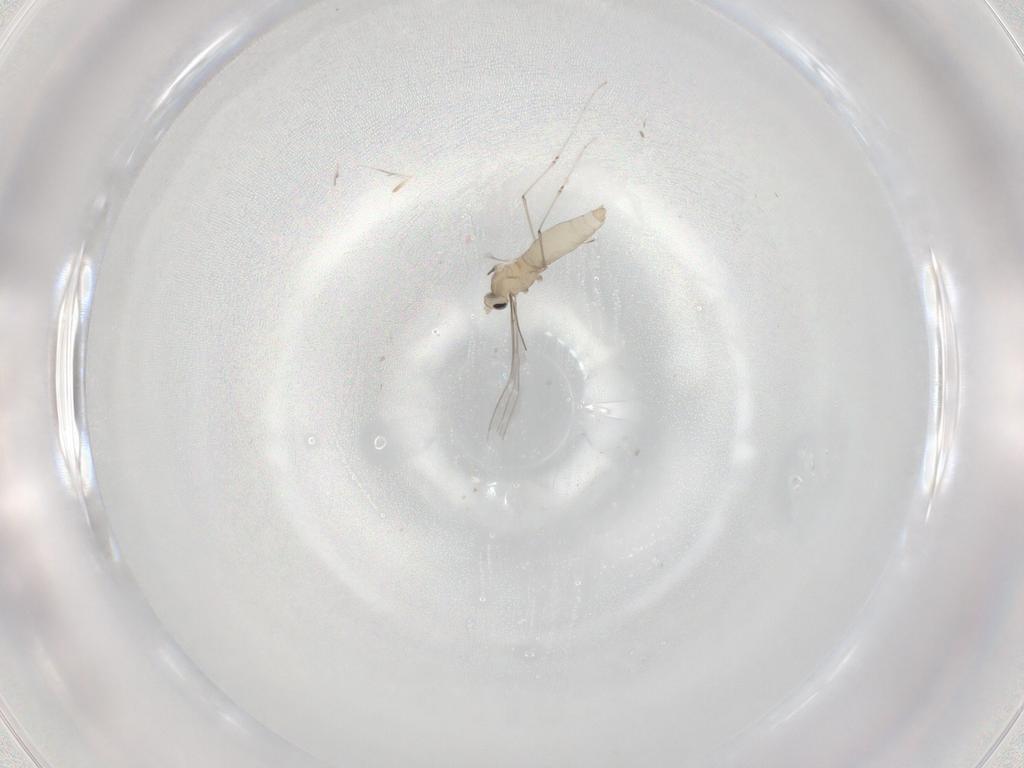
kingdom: Animalia
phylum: Arthropoda
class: Insecta
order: Diptera
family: Cecidomyiidae
